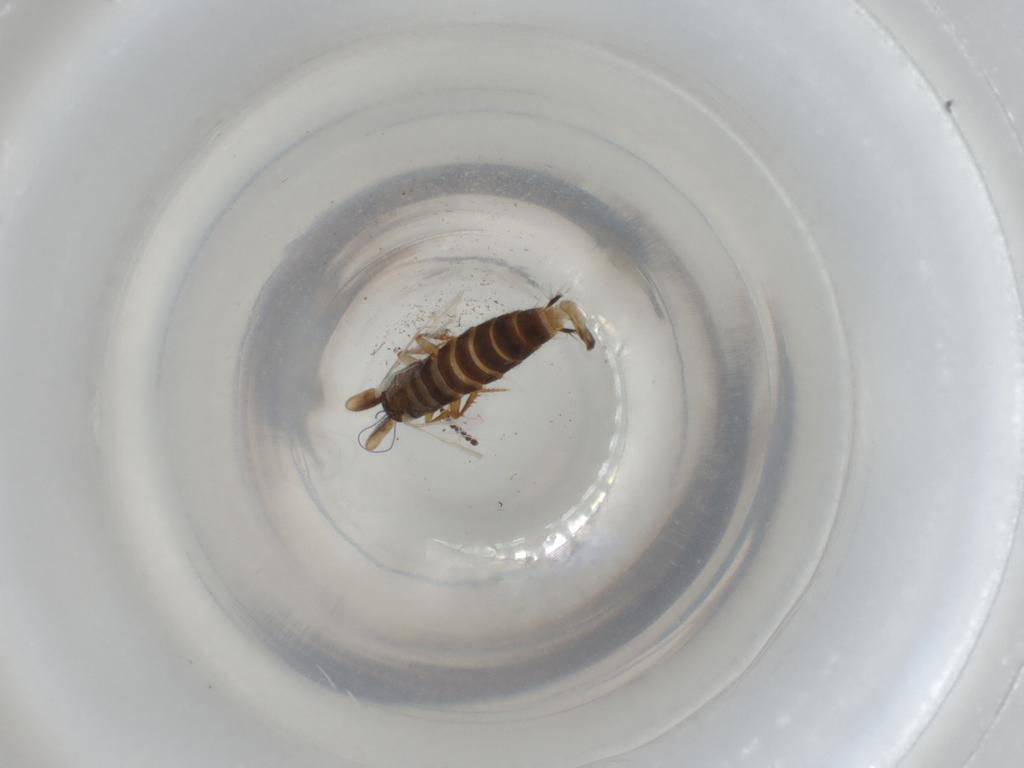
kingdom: Animalia
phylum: Arthropoda
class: Insecta
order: Coleoptera
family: Staphylinidae
